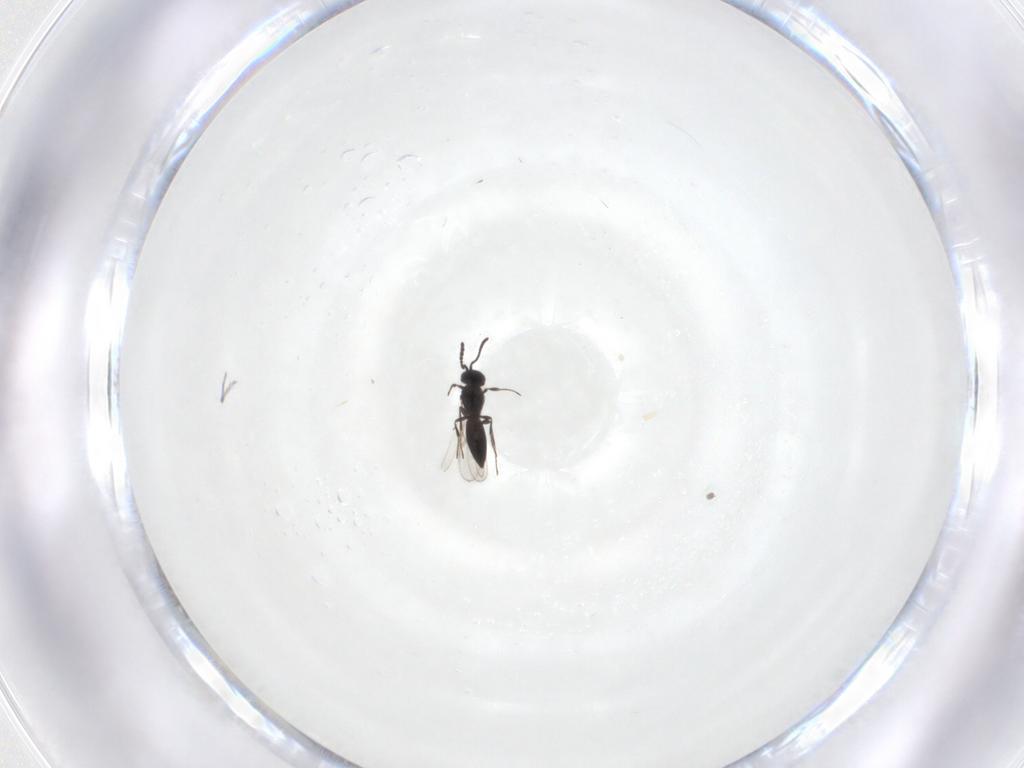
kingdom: Animalia
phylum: Arthropoda
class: Insecta
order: Hymenoptera
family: Scelionidae
